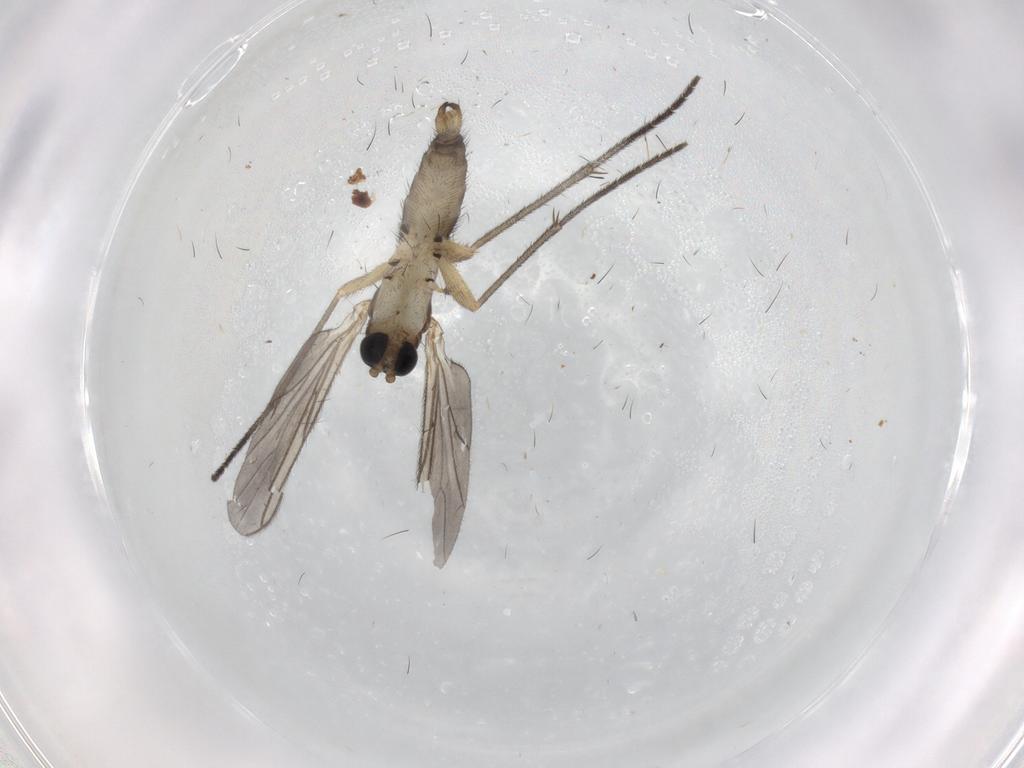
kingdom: Animalia
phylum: Arthropoda
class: Insecta
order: Diptera
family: Sciaridae
